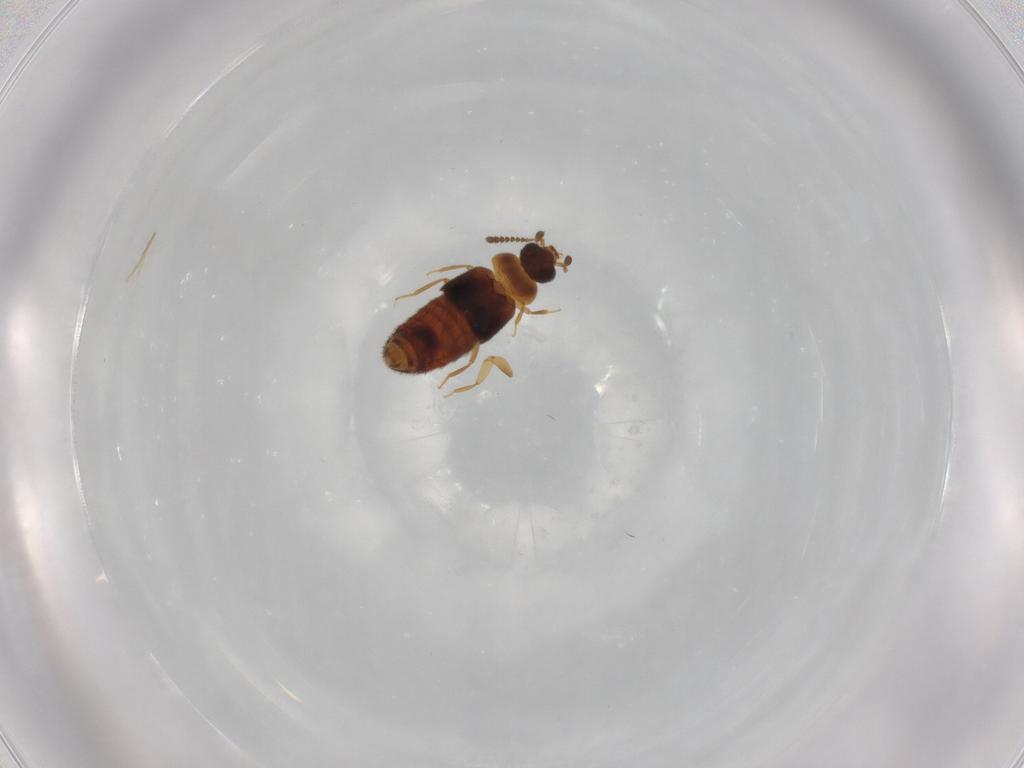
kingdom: Animalia
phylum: Arthropoda
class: Insecta
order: Coleoptera
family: Staphylinidae
